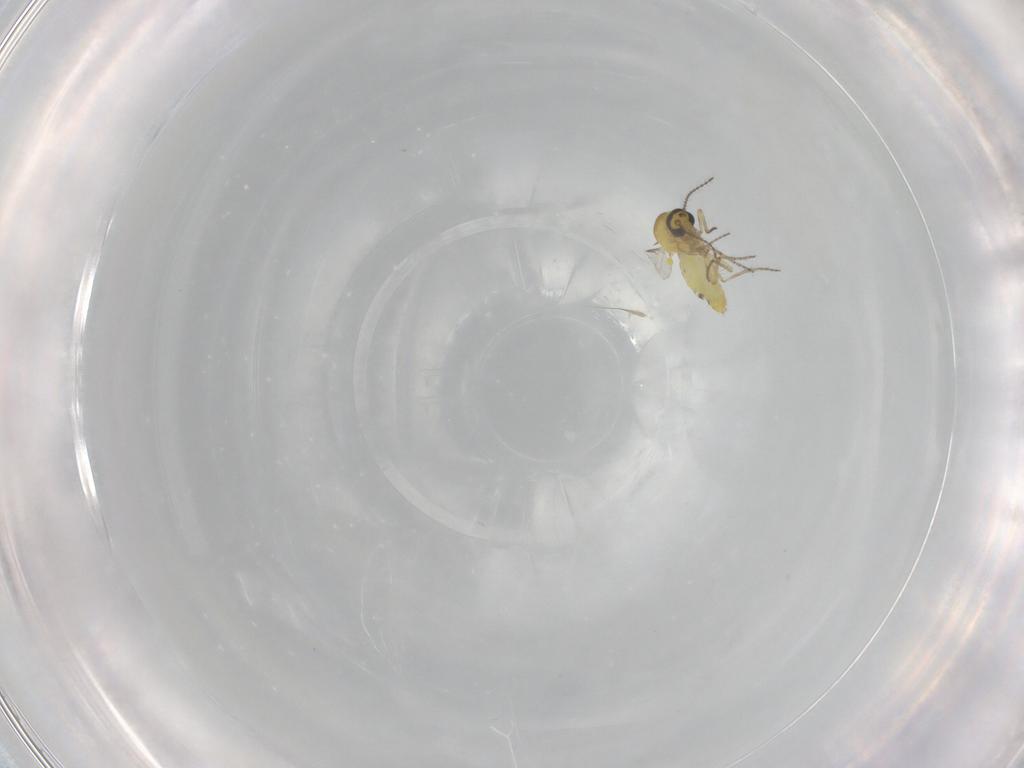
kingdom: Animalia
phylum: Arthropoda
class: Insecta
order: Diptera
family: Ceratopogonidae
